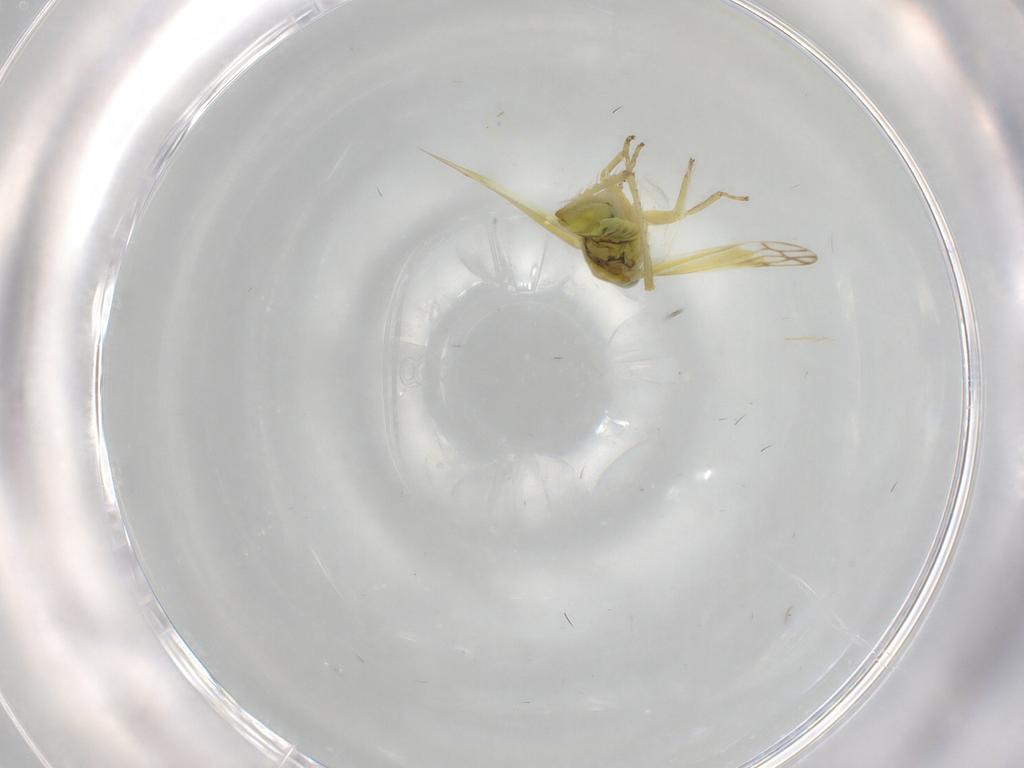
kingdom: Animalia
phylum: Arthropoda
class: Insecta
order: Hemiptera
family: Cicadellidae
